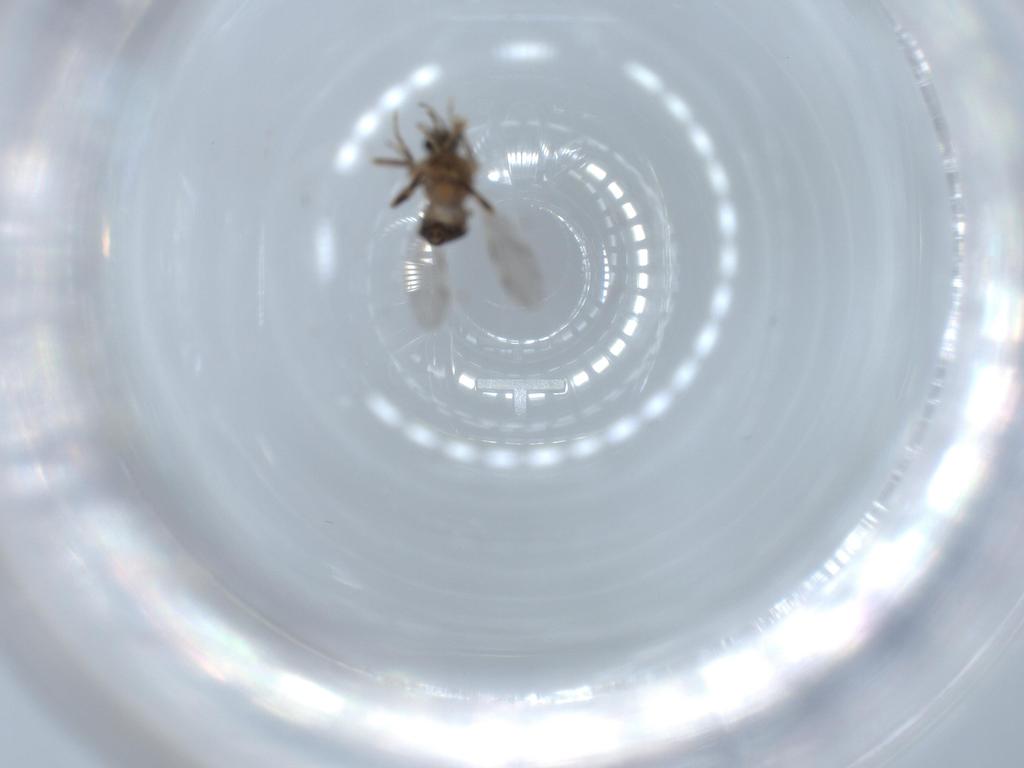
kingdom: Animalia
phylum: Arthropoda
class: Insecta
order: Diptera
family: Ceratopogonidae
